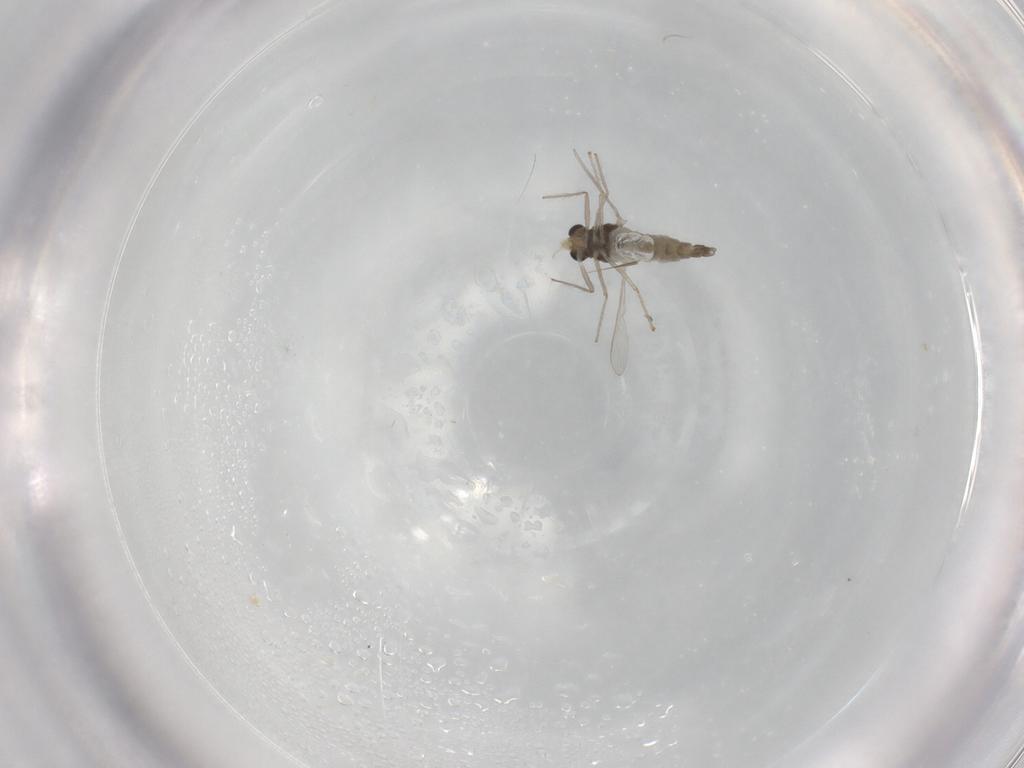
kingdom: Animalia
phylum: Arthropoda
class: Insecta
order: Diptera
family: Chironomidae
